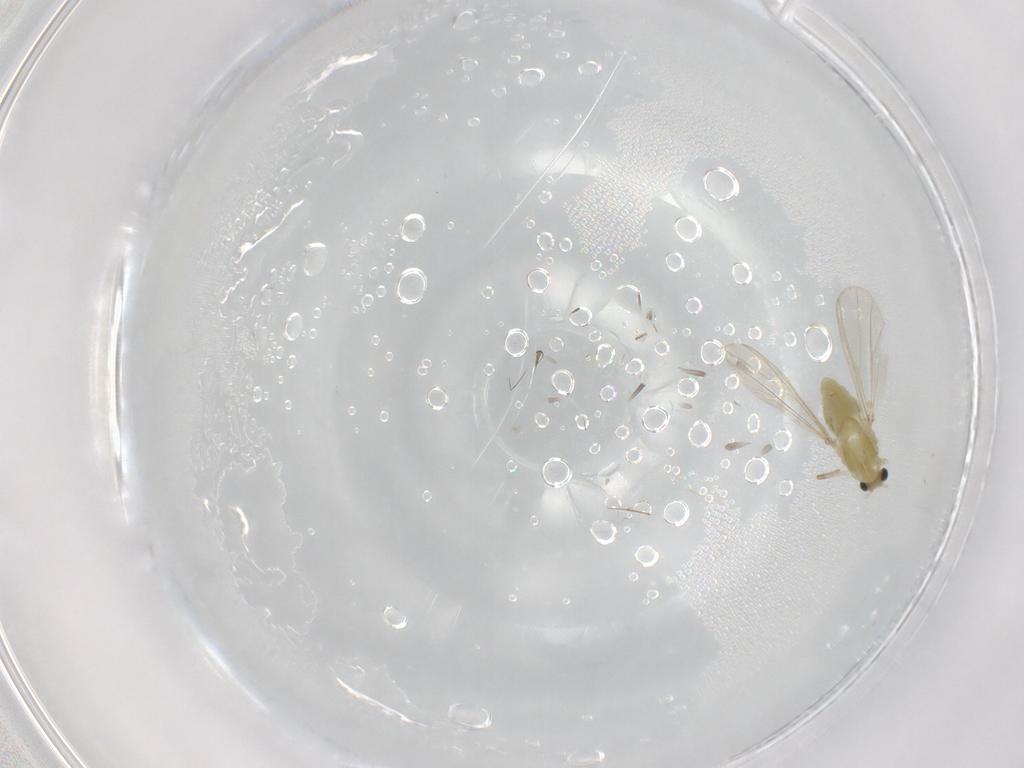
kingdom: Animalia
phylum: Arthropoda
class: Insecta
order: Diptera
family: Chironomidae
